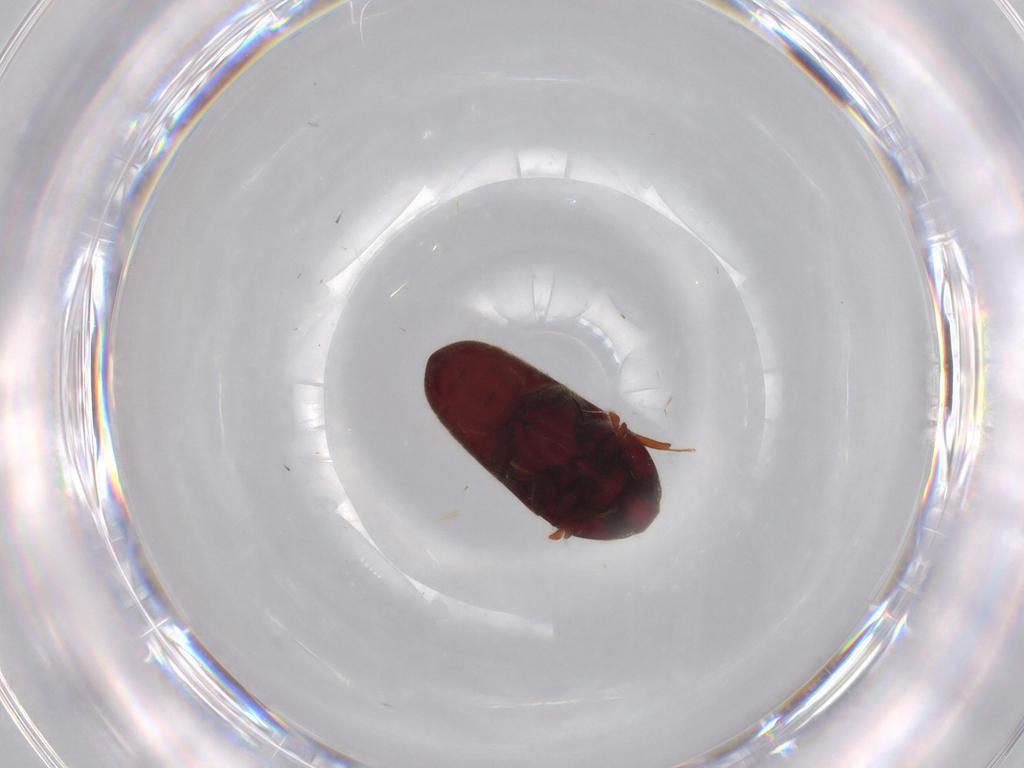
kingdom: Animalia
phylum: Arthropoda
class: Insecta
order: Coleoptera
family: Throscidae
